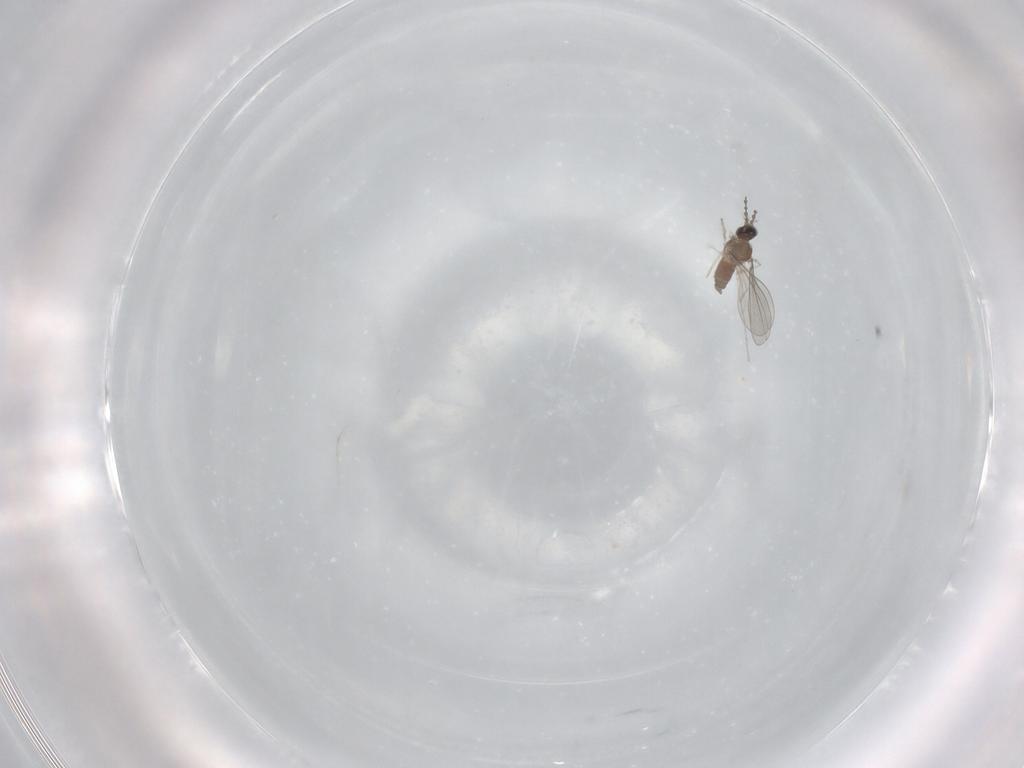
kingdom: Animalia
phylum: Arthropoda
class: Insecta
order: Diptera
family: Cecidomyiidae
